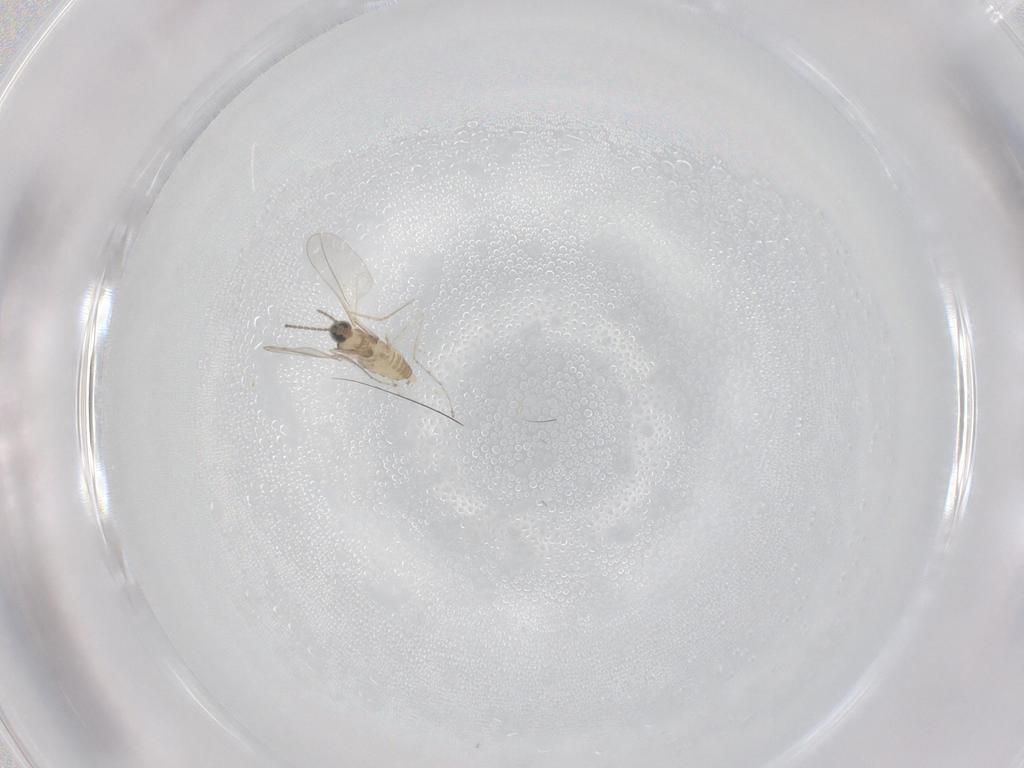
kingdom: Animalia
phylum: Arthropoda
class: Insecta
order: Diptera
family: Cecidomyiidae
